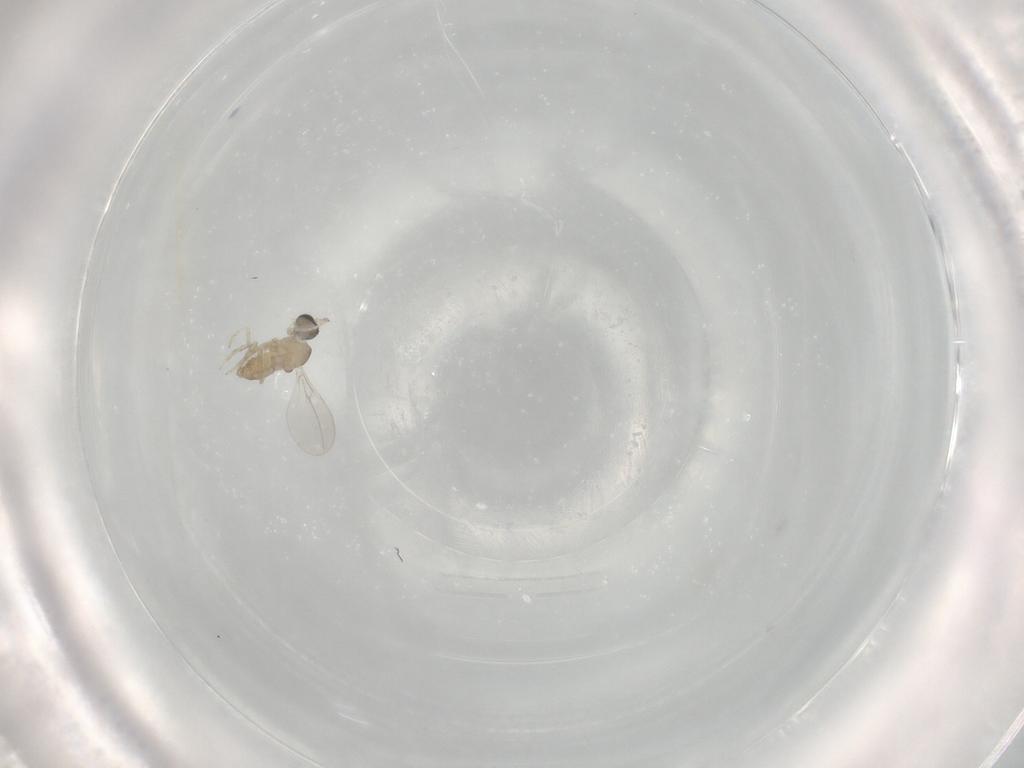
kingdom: Animalia
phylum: Arthropoda
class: Insecta
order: Diptera
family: Cecidomyiidae
